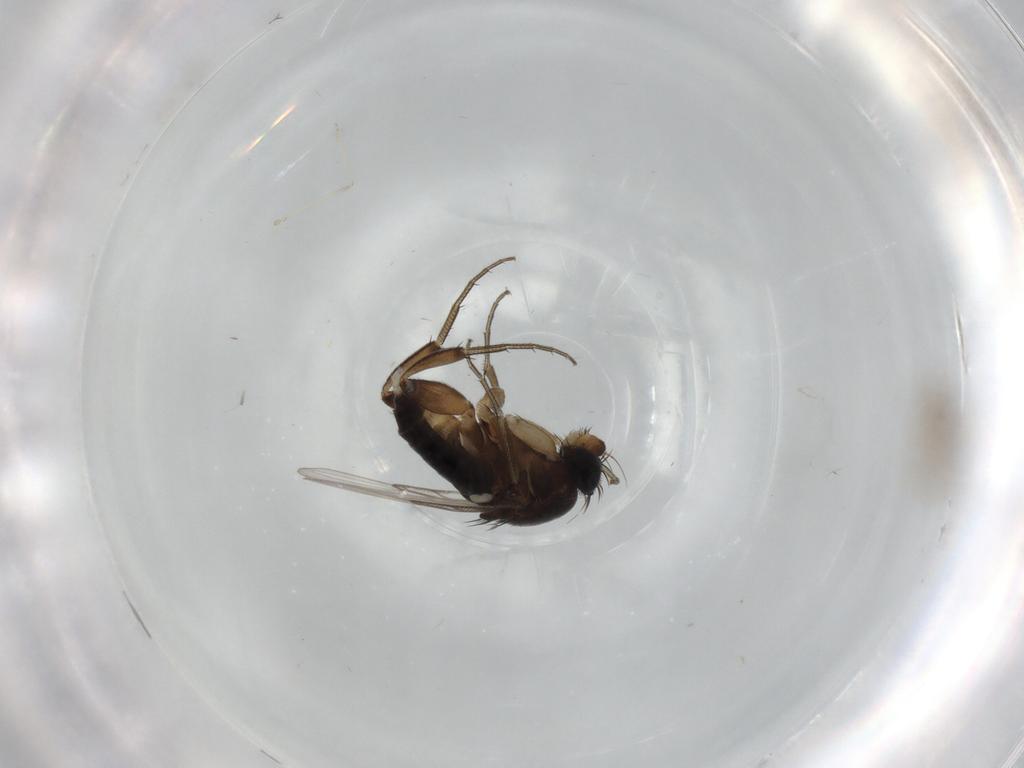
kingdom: Animalia
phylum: Arthropoda
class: Insecta
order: Diptera
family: Cecidomyiidae
